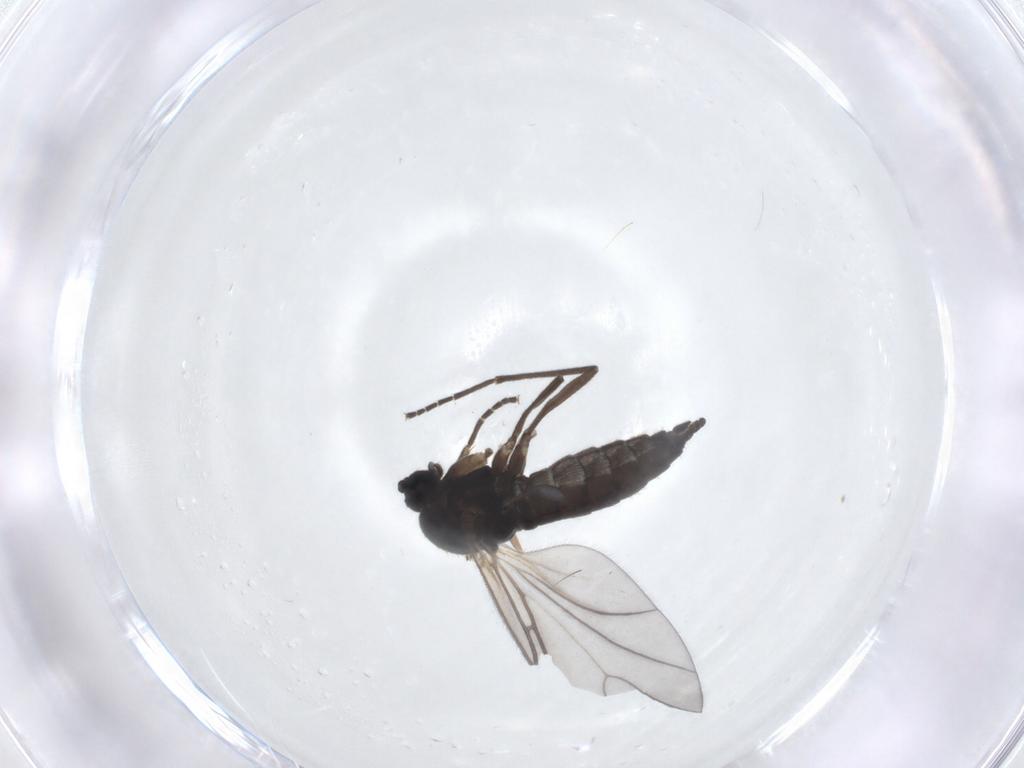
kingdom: Animalia
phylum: Arthropoda
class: Insecta
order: Diptera
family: Sciaridae
